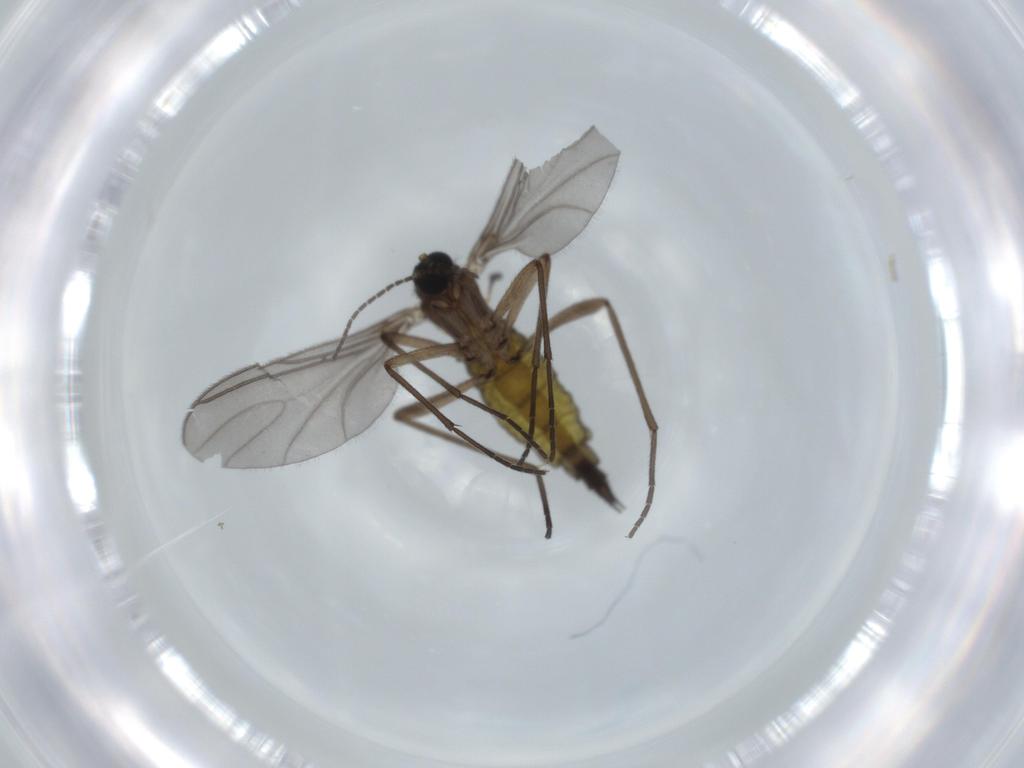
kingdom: Animalia
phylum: Arthropoda
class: Insecta
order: Diptera
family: Sciaridae
